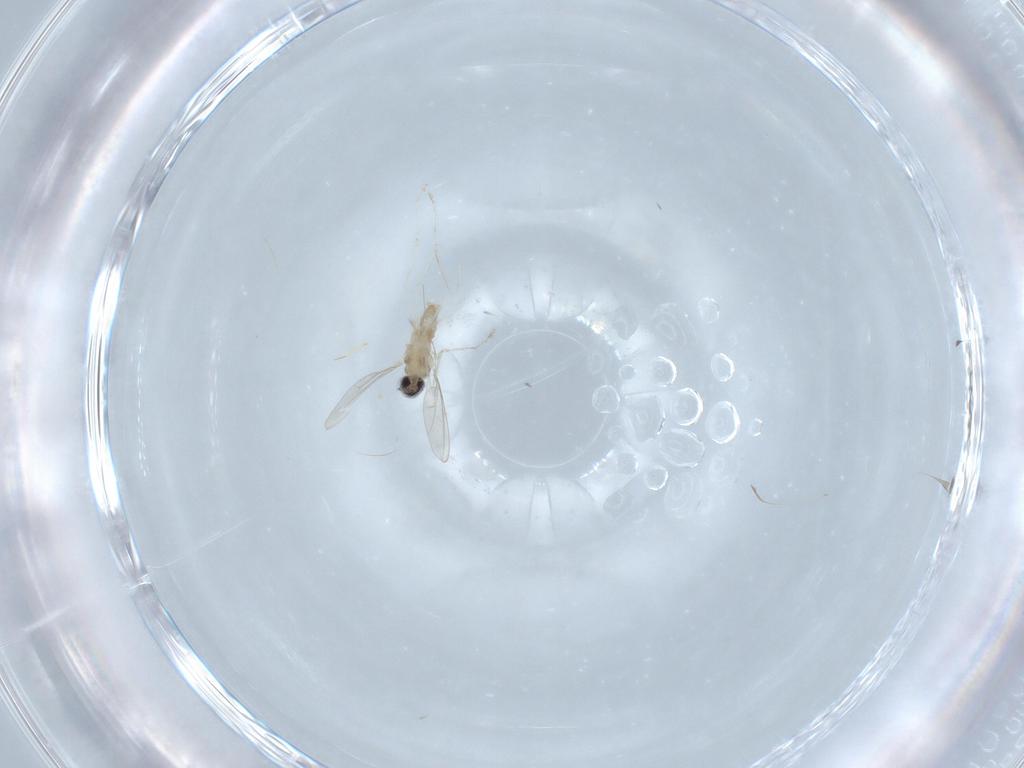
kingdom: Animalia
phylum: Arthropoda
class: Insecta
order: Diptera
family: Cecidomyiidae
